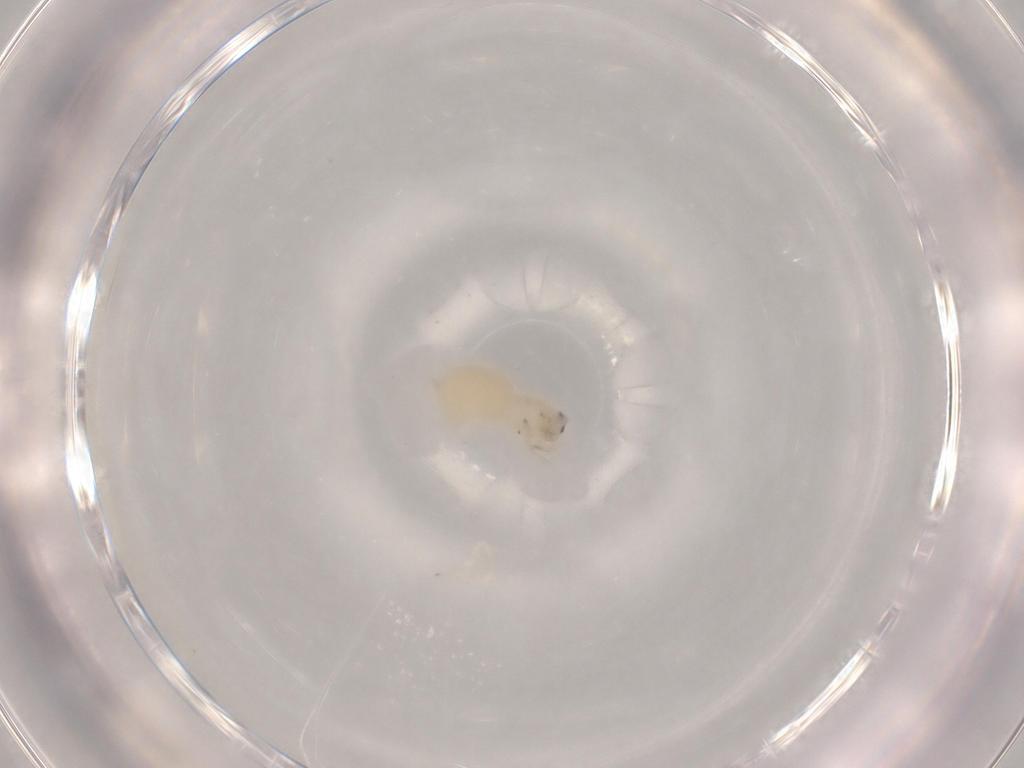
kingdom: Animalia
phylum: Arthropoda
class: Arachnida
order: Araneae
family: Anyphaenidae
